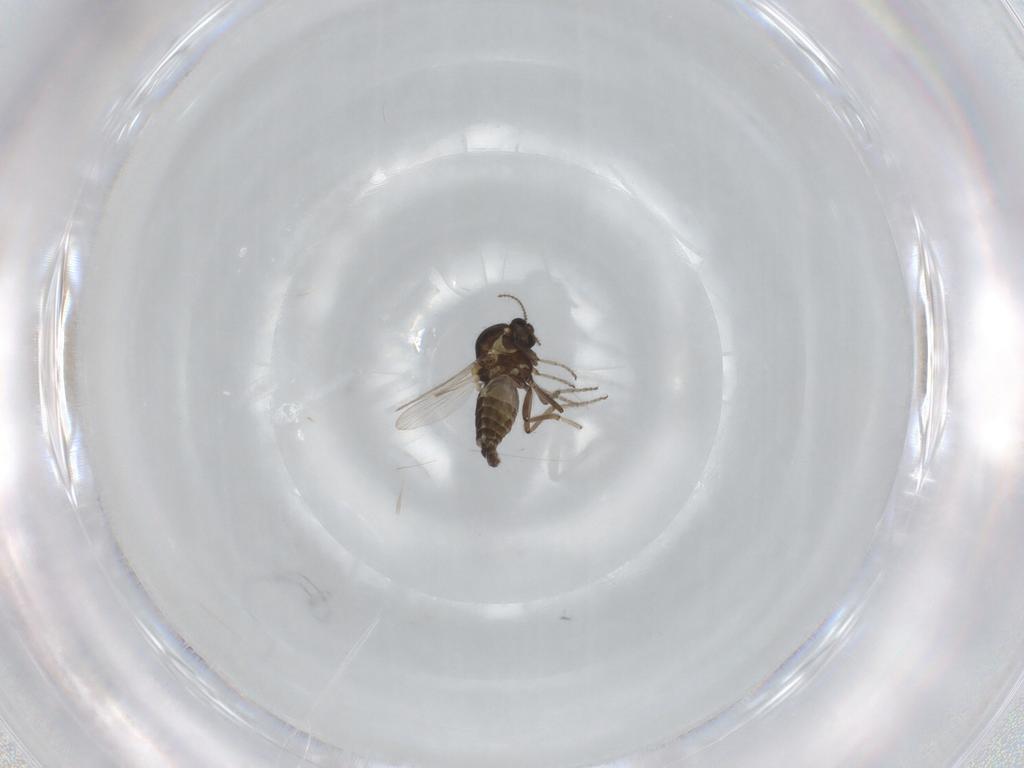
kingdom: Animalia
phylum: Arthropoda
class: Insecta
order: Diptera
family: Ceratopogonidae
